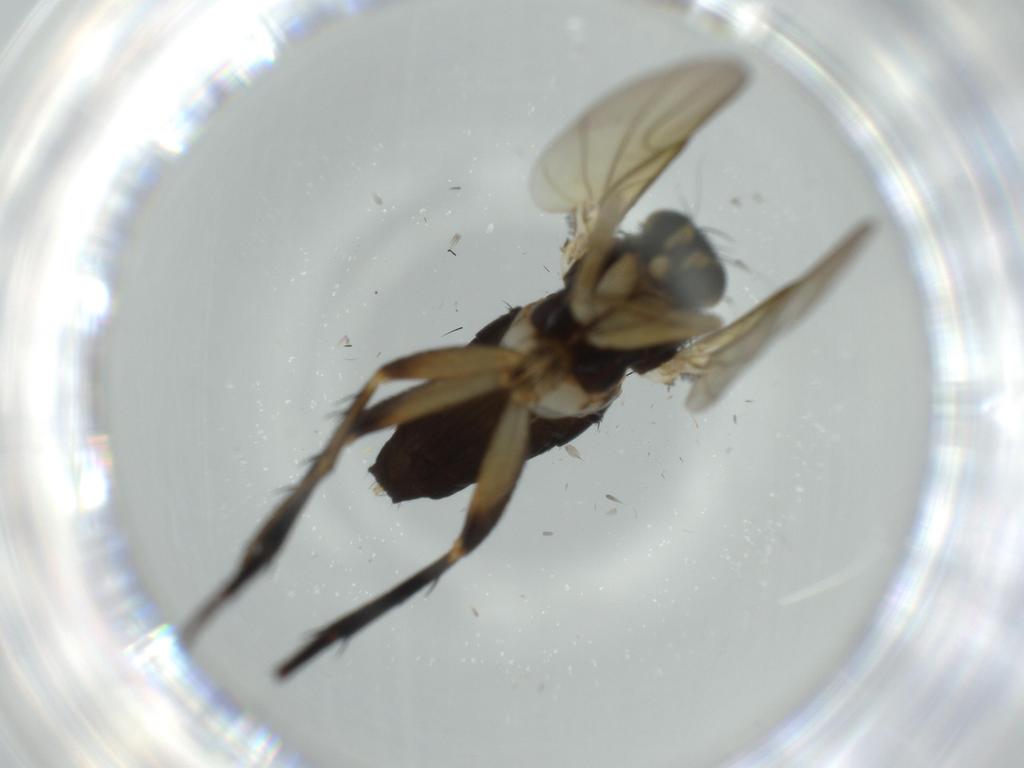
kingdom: Animalia
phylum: Arthropoda
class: Insecta
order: Diptera
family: Phoridae
